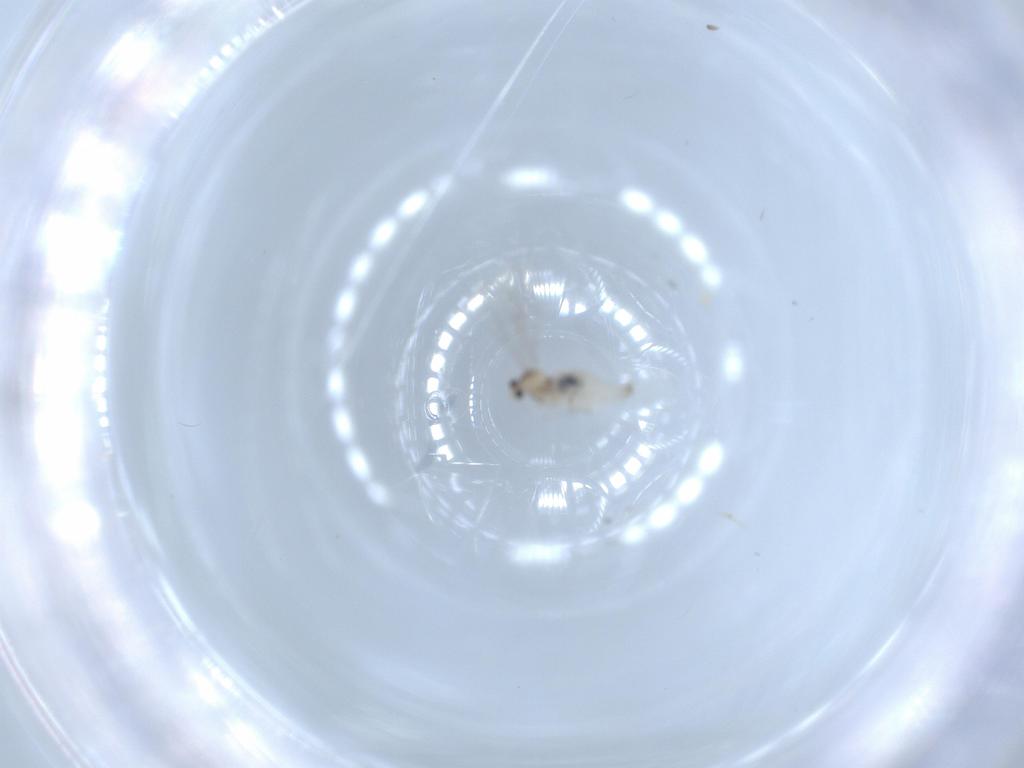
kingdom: Animalia
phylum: Arthropoda
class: Insecta
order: Diptera
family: Cecidomyiidae
